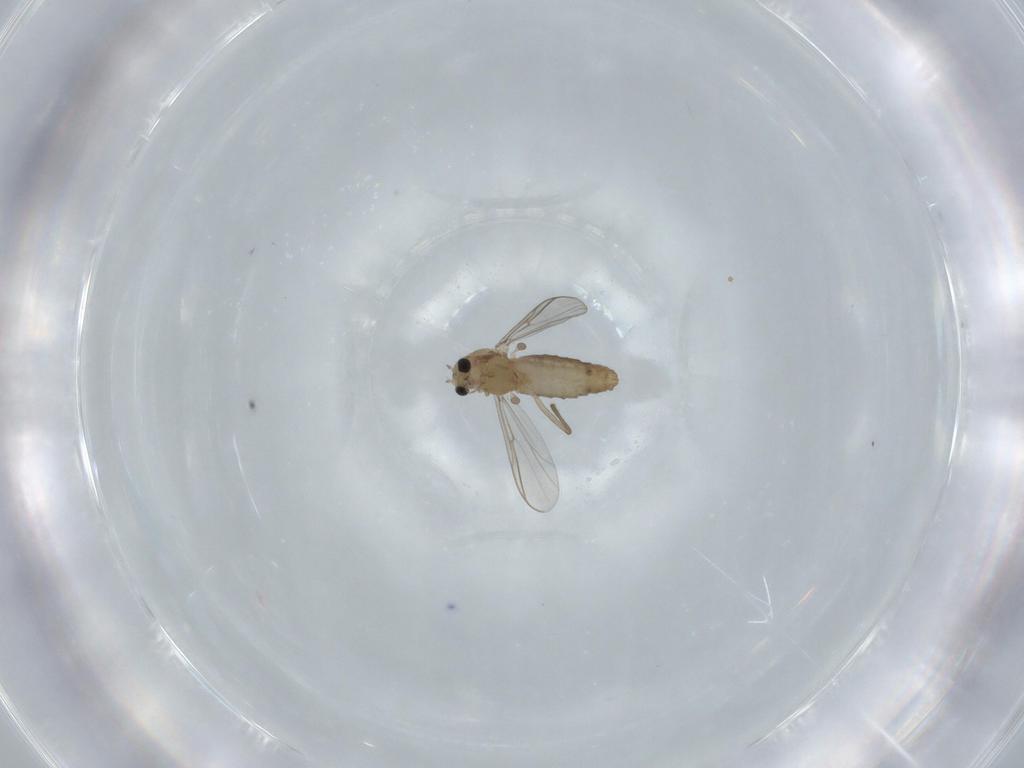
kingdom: Animalia
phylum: Arthropoda
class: Insecta
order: Diptera
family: Chironomidae
